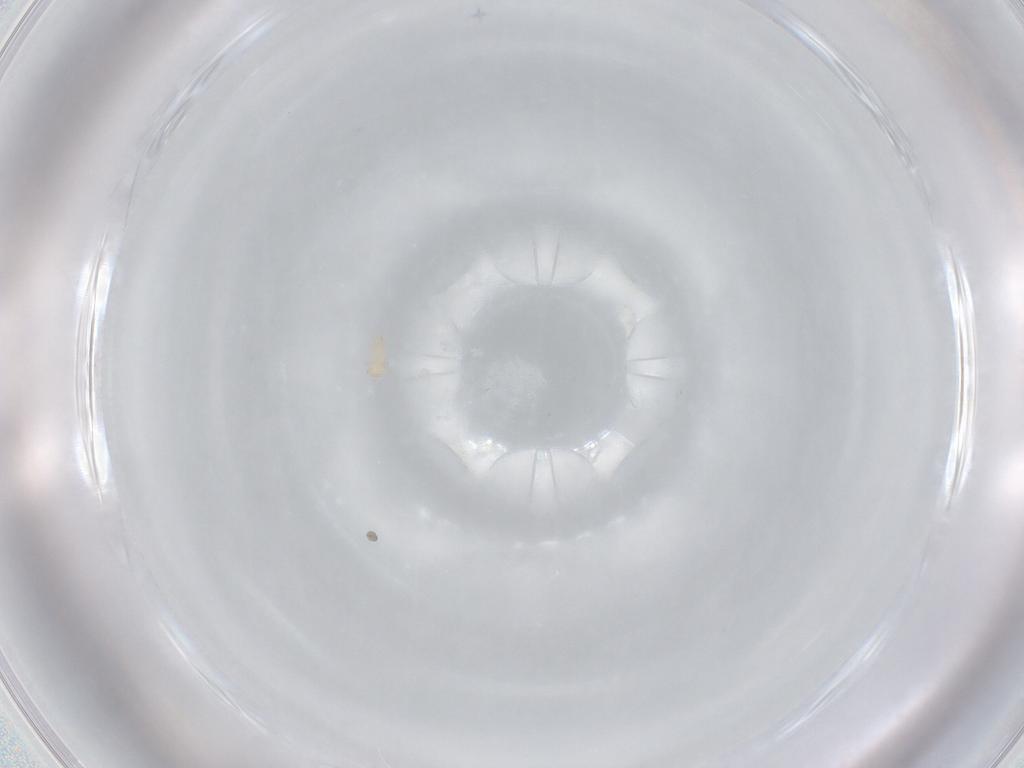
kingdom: Animalia
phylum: Arthropoda
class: Arachnida
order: Mesostigmata
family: Digamasellidae
